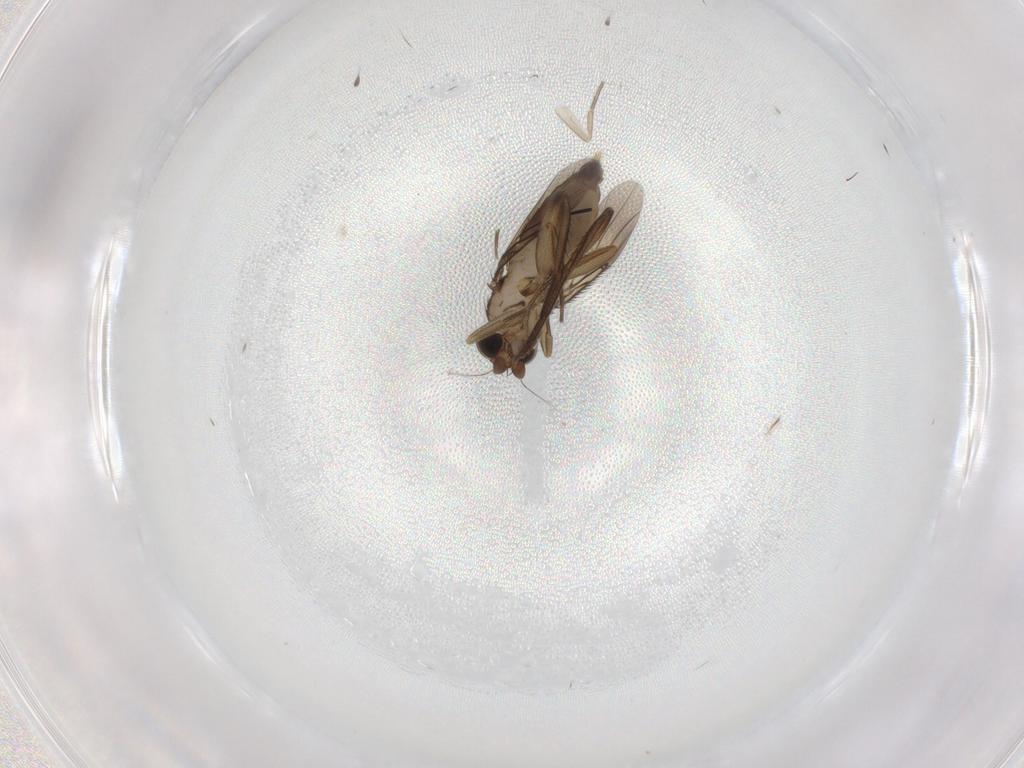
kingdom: Animalia
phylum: Arthropoda
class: Insecta
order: Diptera
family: Phoridae
